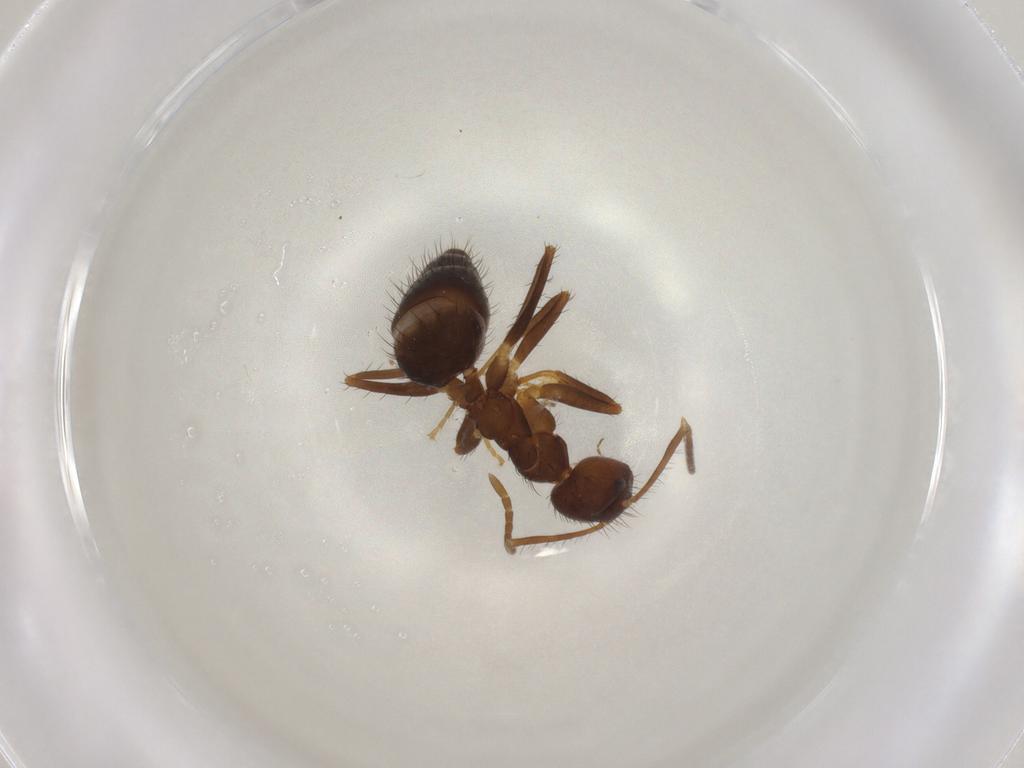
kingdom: Animalia
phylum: Arthropoda
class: Insecta
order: Hymenoptera
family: Formicidae
